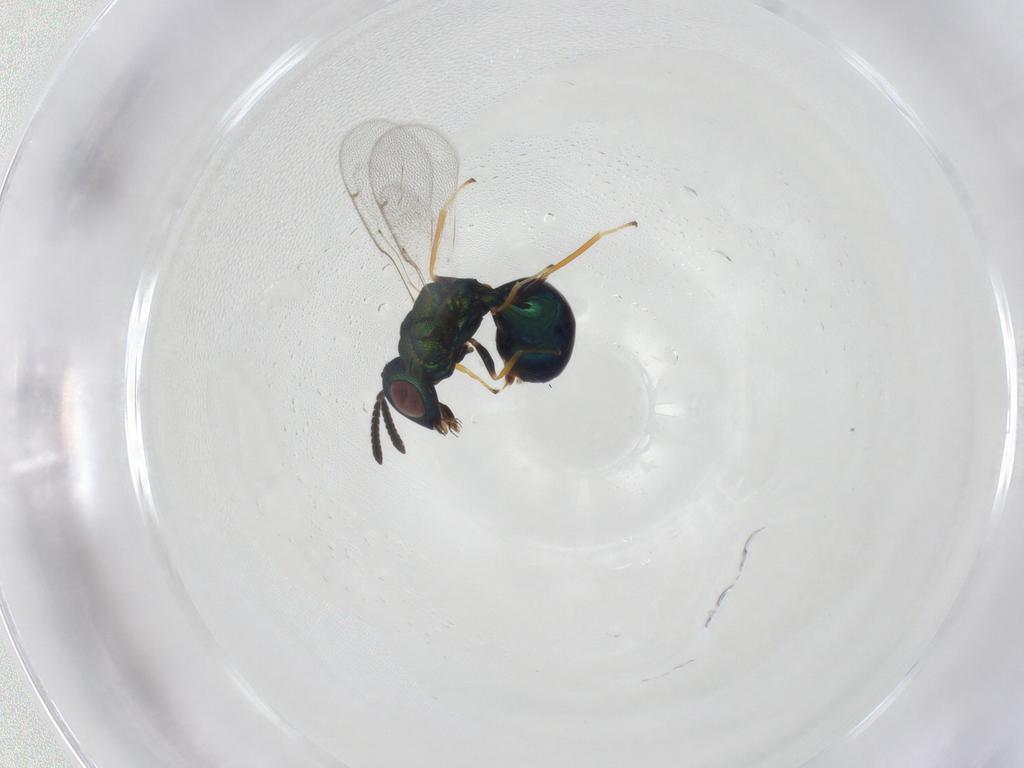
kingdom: Animalia
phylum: Arthropoda
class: Insecta
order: Hymenoptera
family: Eucharitidae
